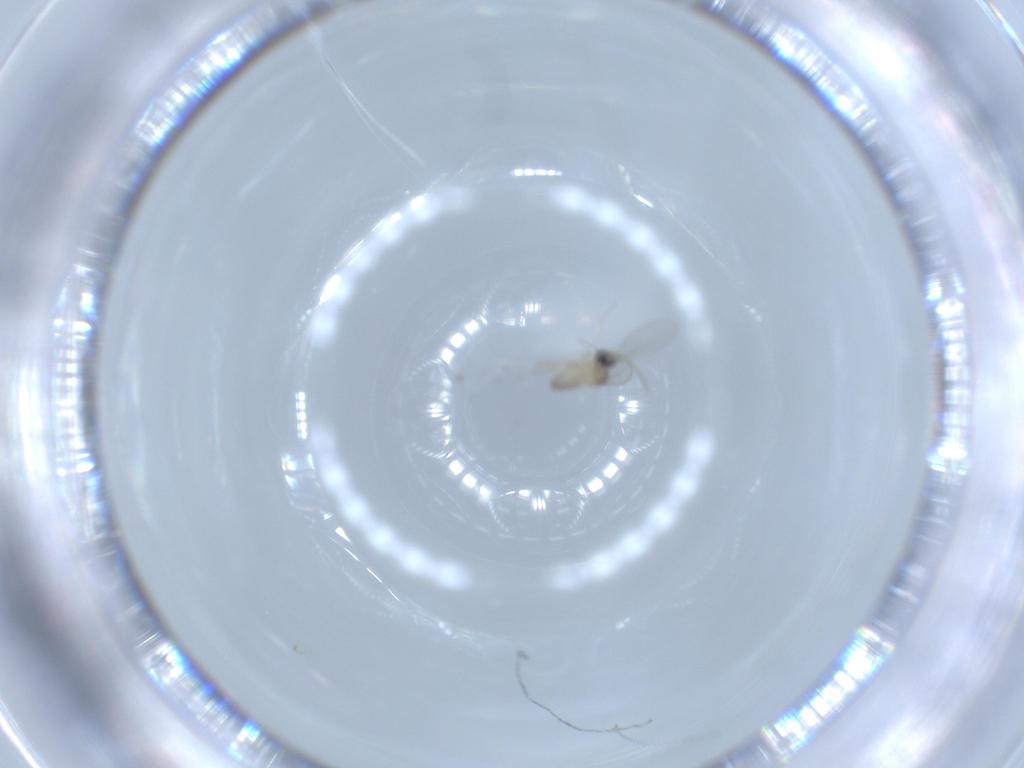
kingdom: Animalia
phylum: Arthropoda
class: Insecta
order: Diptera
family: Cecidomyiidae
